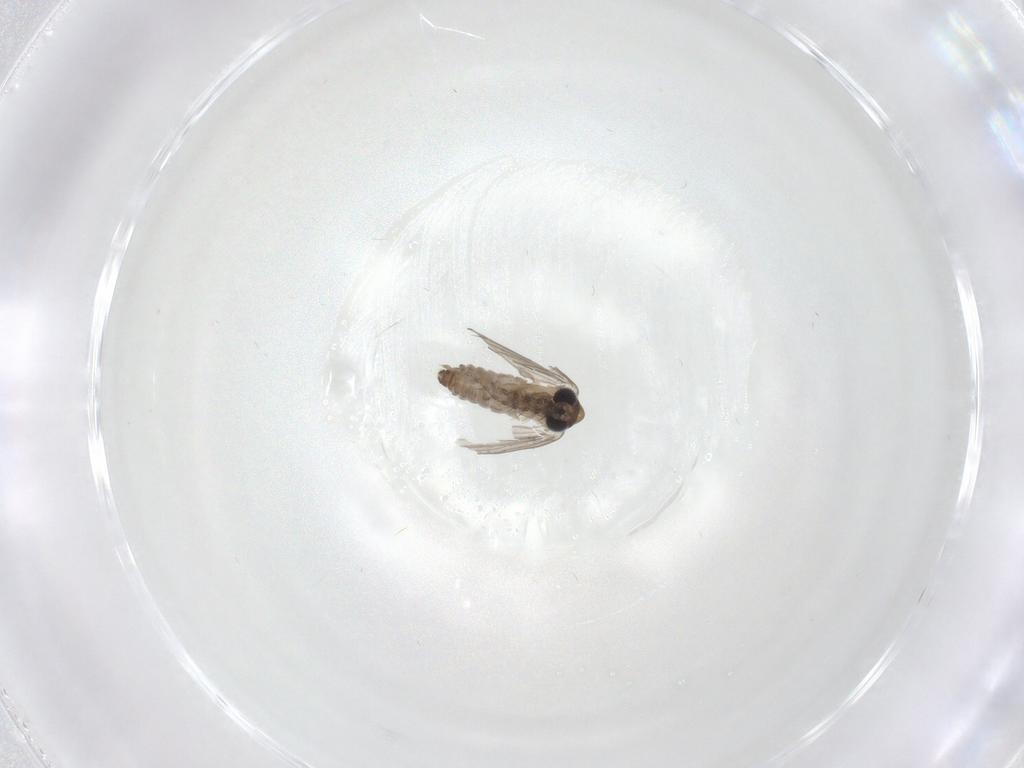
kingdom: Animalia
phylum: Arthropoda
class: Insecta
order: Diptera
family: Psychodidae
